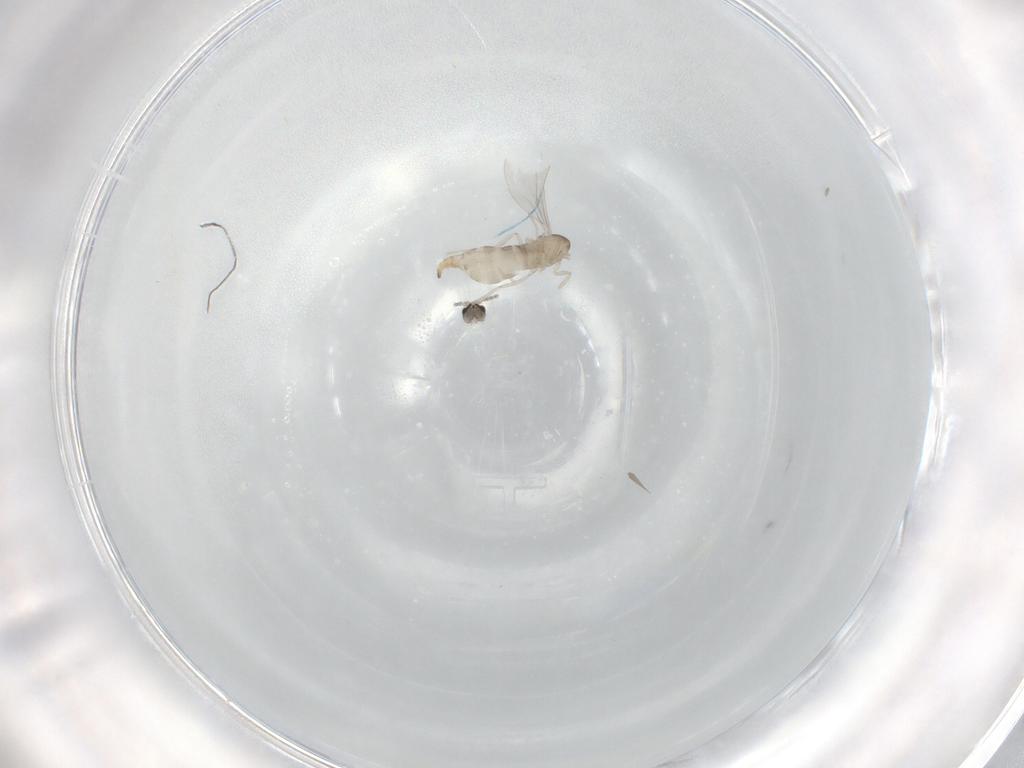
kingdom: Animalia
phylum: Arthropoda
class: Insecta
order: Diptera
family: Cecidomyiidae
